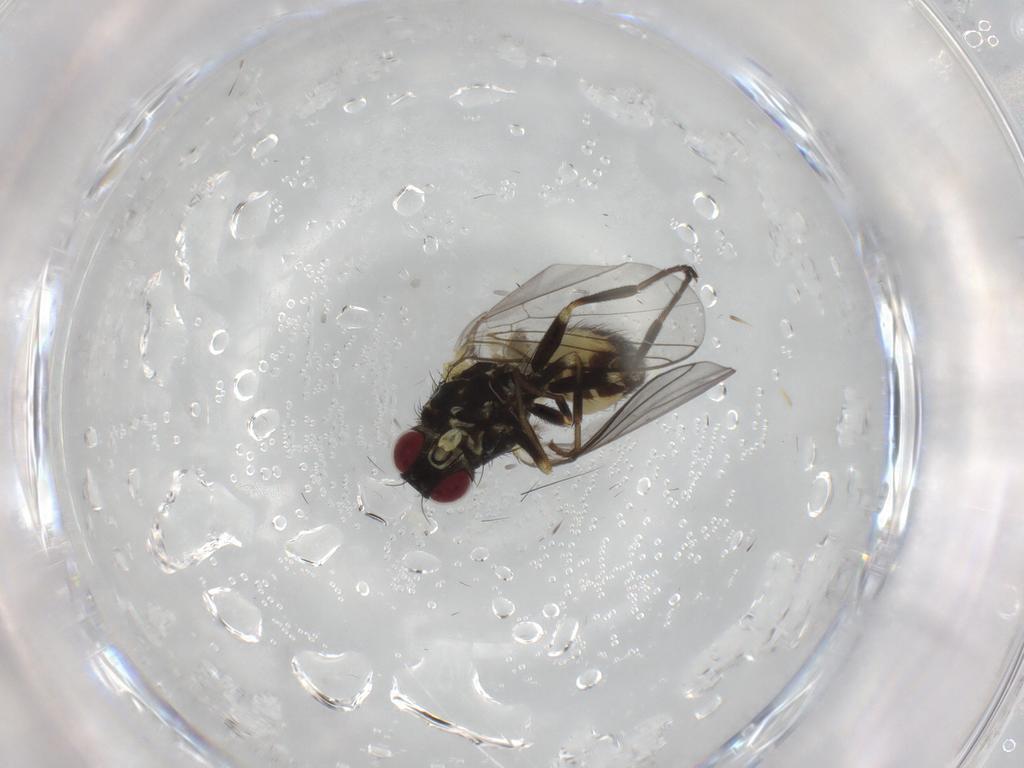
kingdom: Animalia
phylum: Arthropoda
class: Insecta
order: Diptera
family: Agromyzidae
